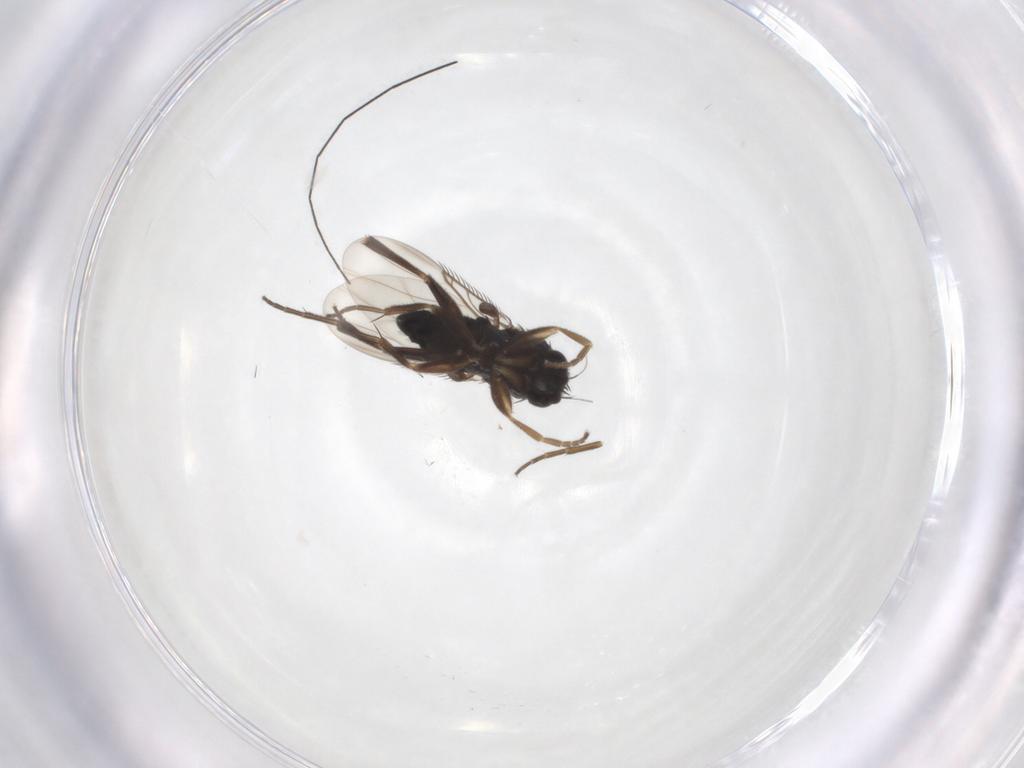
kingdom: Animalia
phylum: Arthropoda
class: Insecta
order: Diptera
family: Phoridae
